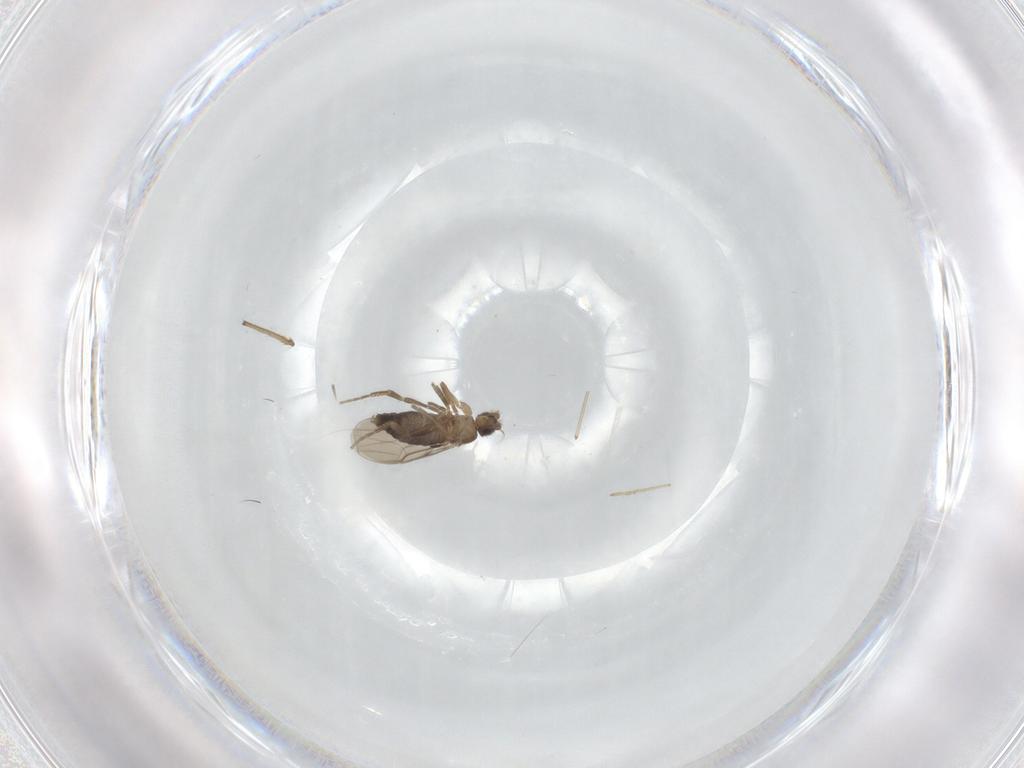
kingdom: Animalia
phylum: Arthropoda
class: Insecta
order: Diptera
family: Phoridae
